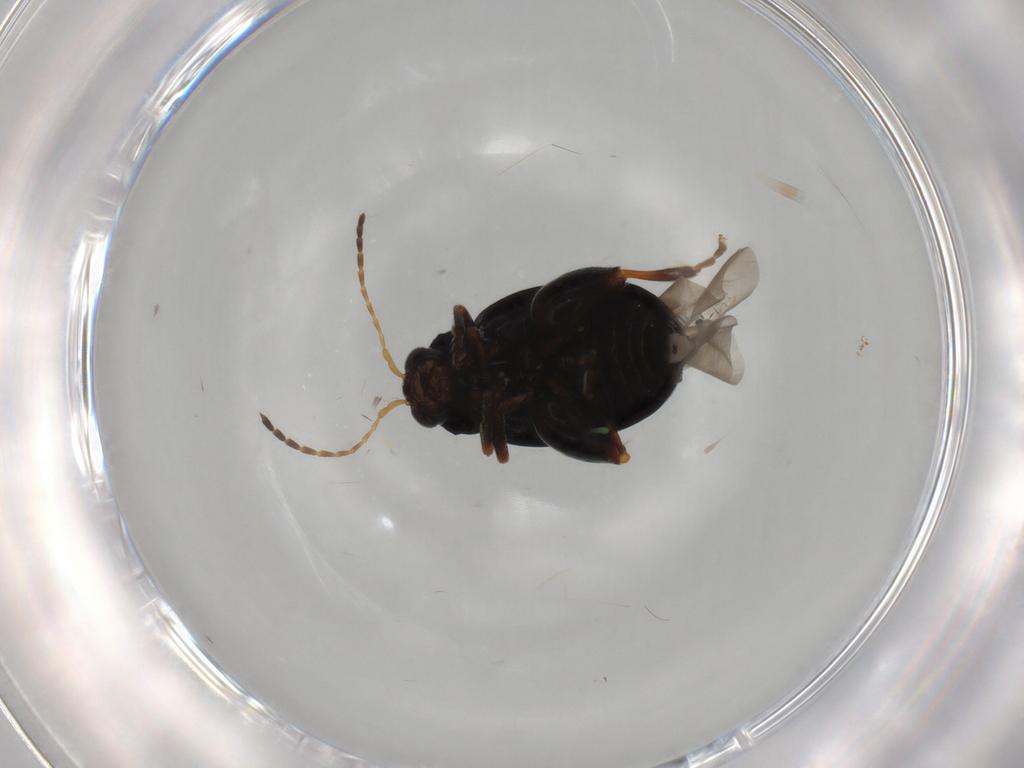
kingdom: Animalia
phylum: Arthropoda
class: Insecta
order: Coleoptera
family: Chrysomelidae
